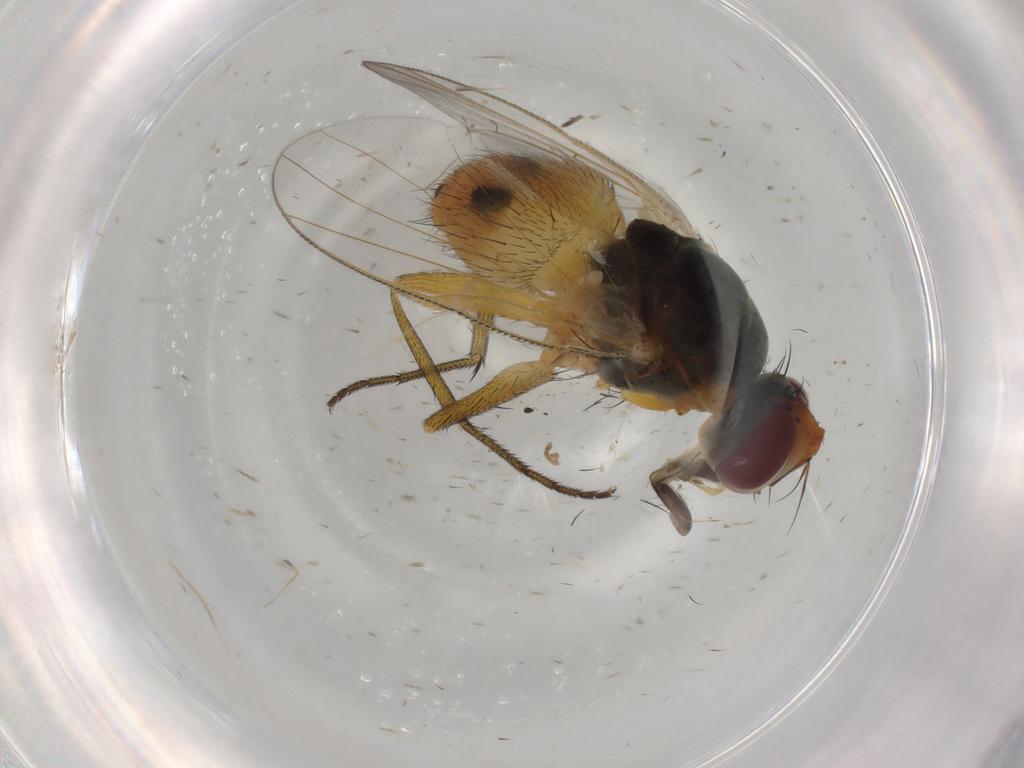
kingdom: Animalia
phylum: Arthropoda
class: Insecta
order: Diptera
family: Muscidae
